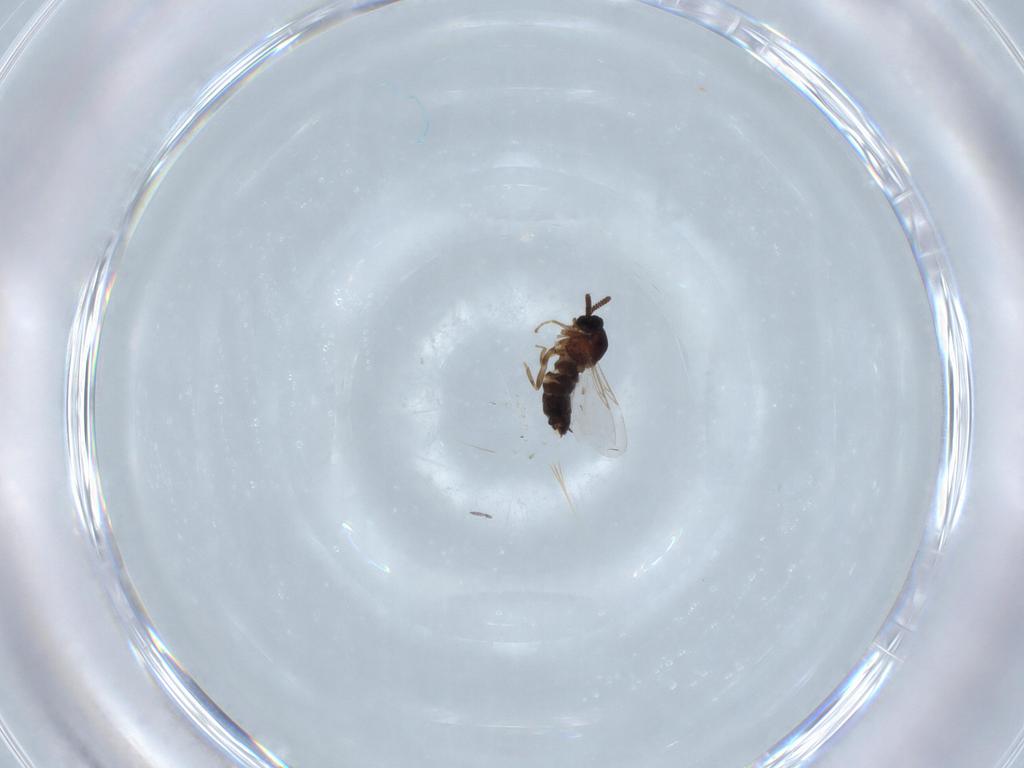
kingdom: Animalia
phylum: Arthropoda
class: Insecta
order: Diptera
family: Scatopsidae
